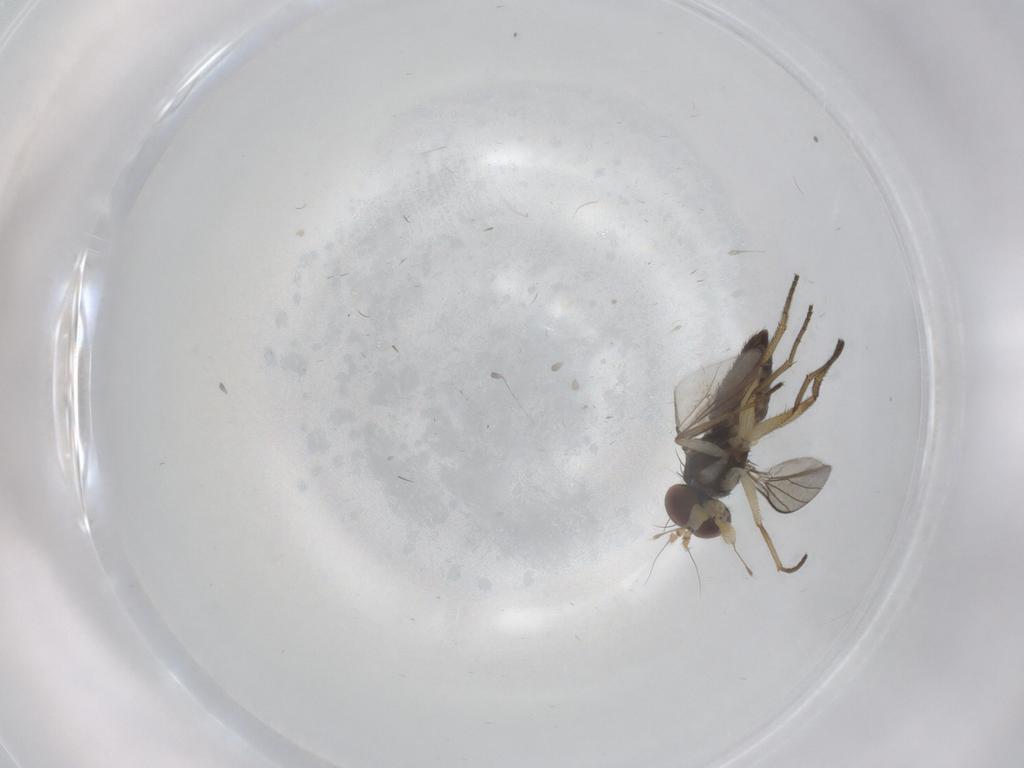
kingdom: Animalia
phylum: Arthropoda
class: Insecta
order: Diptera
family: Dolichopodidae
